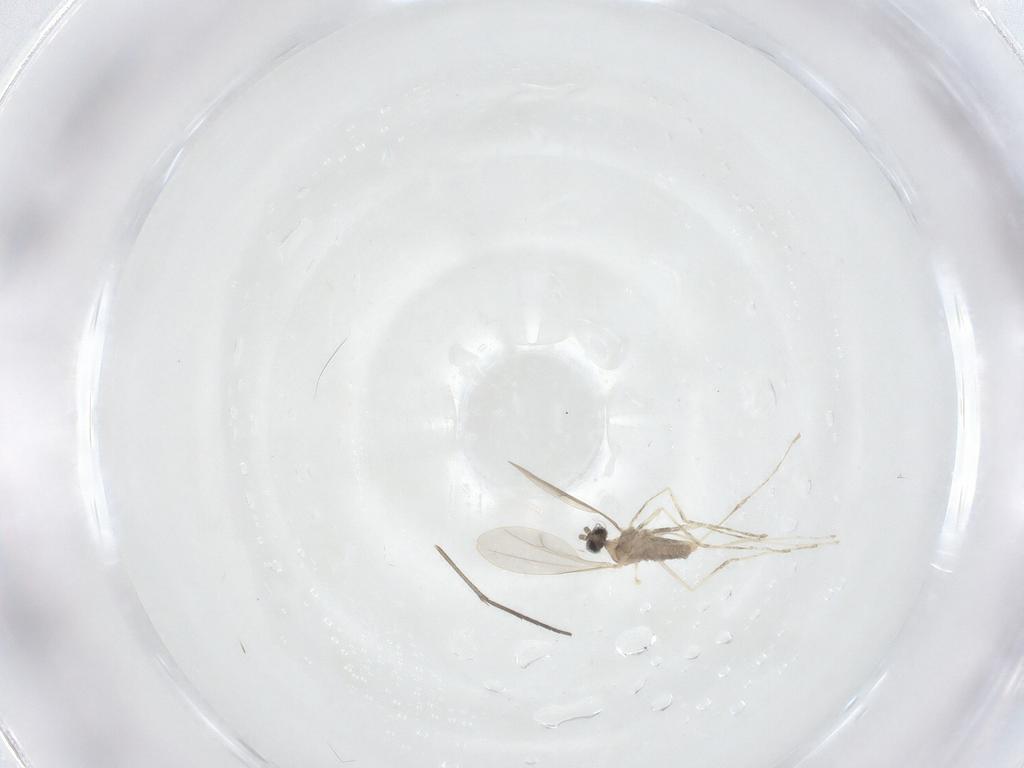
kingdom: Animalia
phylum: Arthropoda
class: Insecta
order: Diptera
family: Cecidomyiidae
